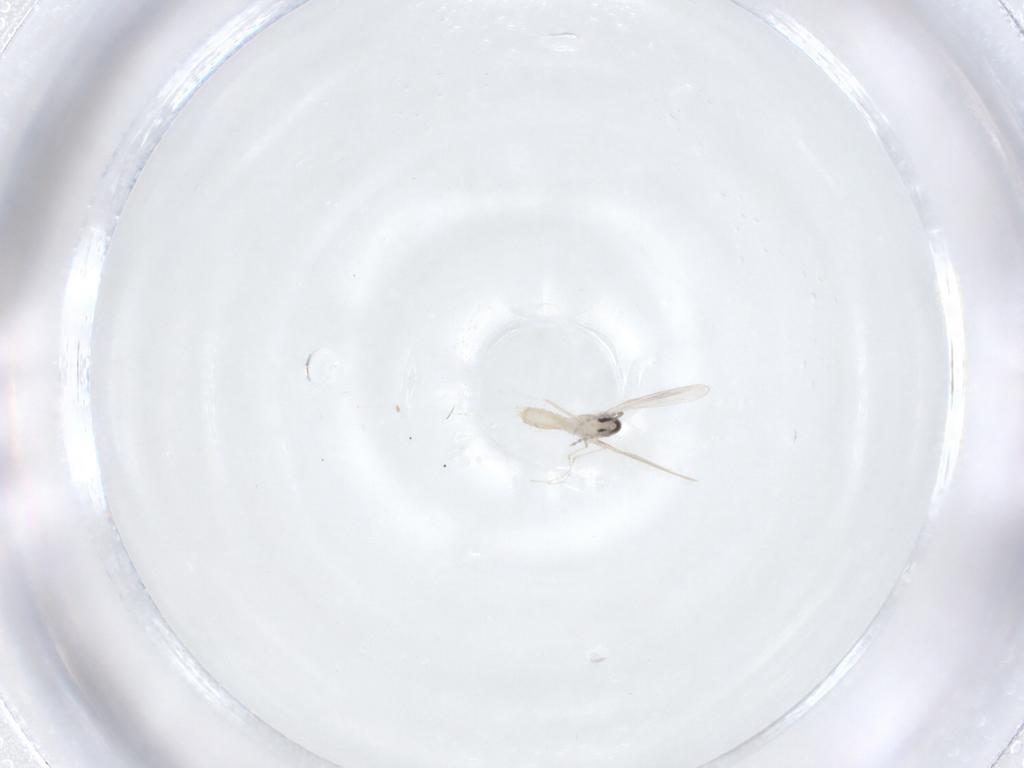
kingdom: Animalia
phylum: Arthropoda
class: Insecta
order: Diptera
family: Cecidomyiidae
